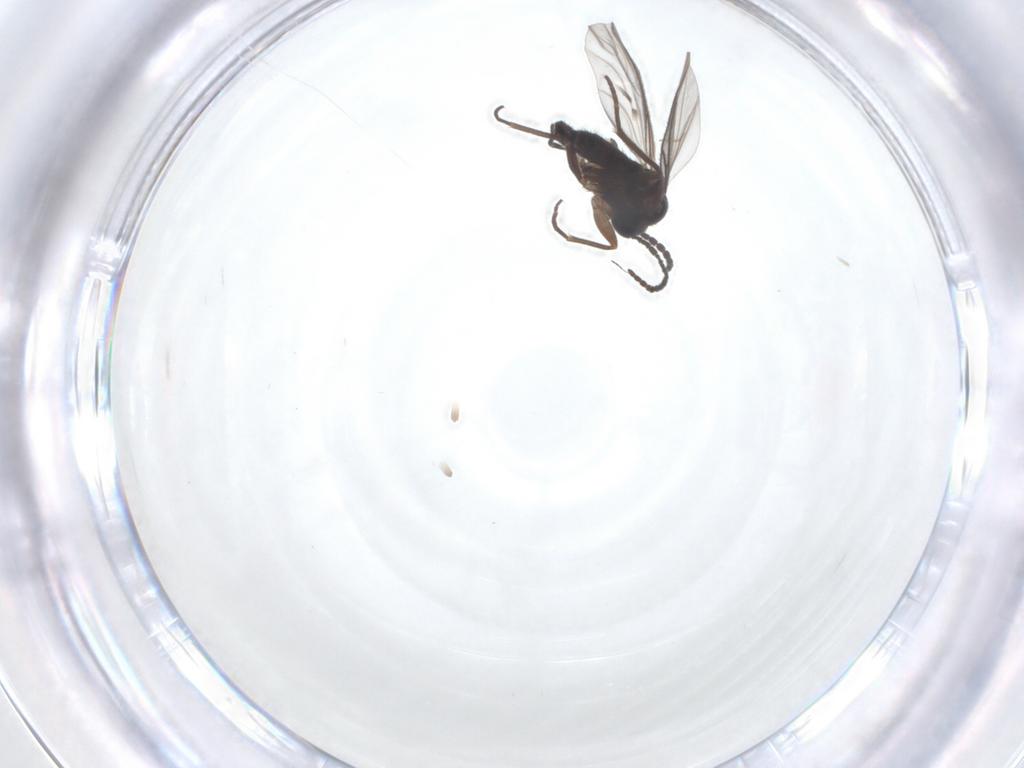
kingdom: Animalia
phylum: Arthropoda
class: Insecta
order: Diptera
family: Sciaridae
